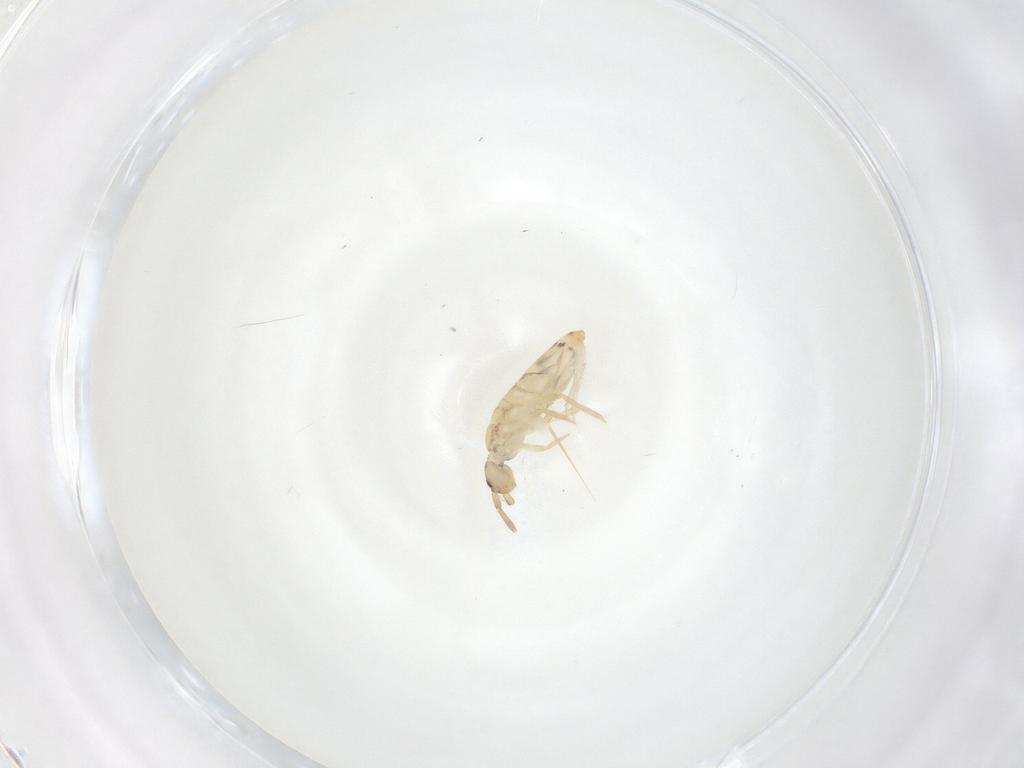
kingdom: Animalia
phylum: Arthropoda
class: Collembola
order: Entomobryomorpha
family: Entomobryidae
